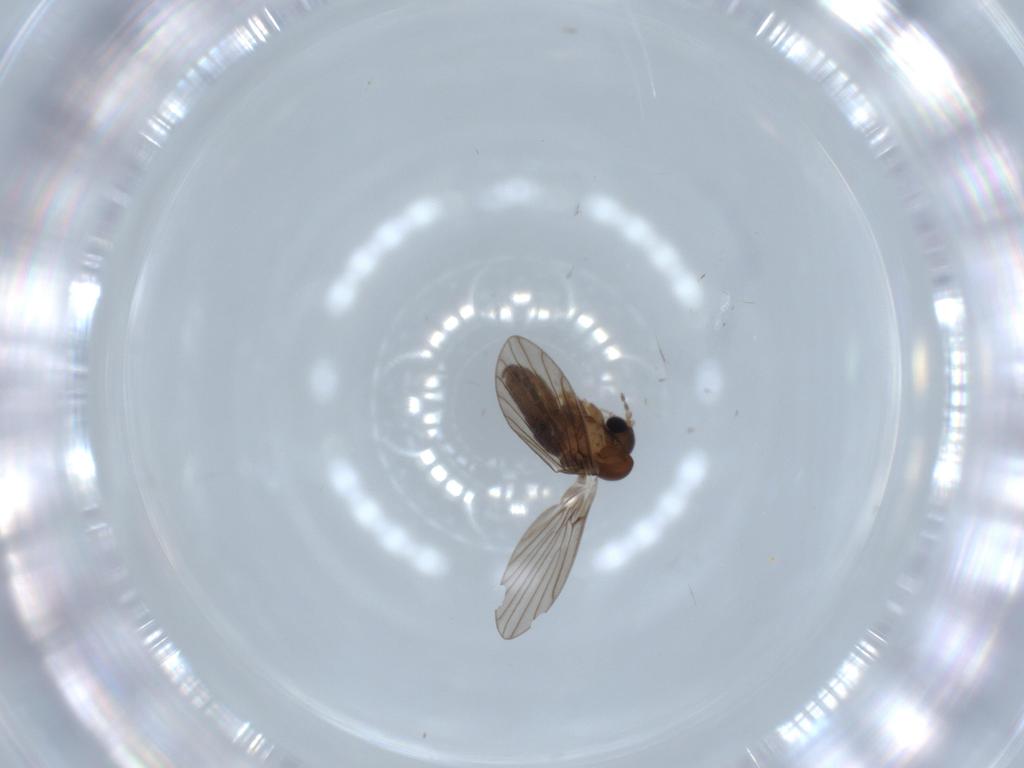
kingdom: Animalia
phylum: Arthropoda
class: Insecta
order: Diptera
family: Psychodidae
